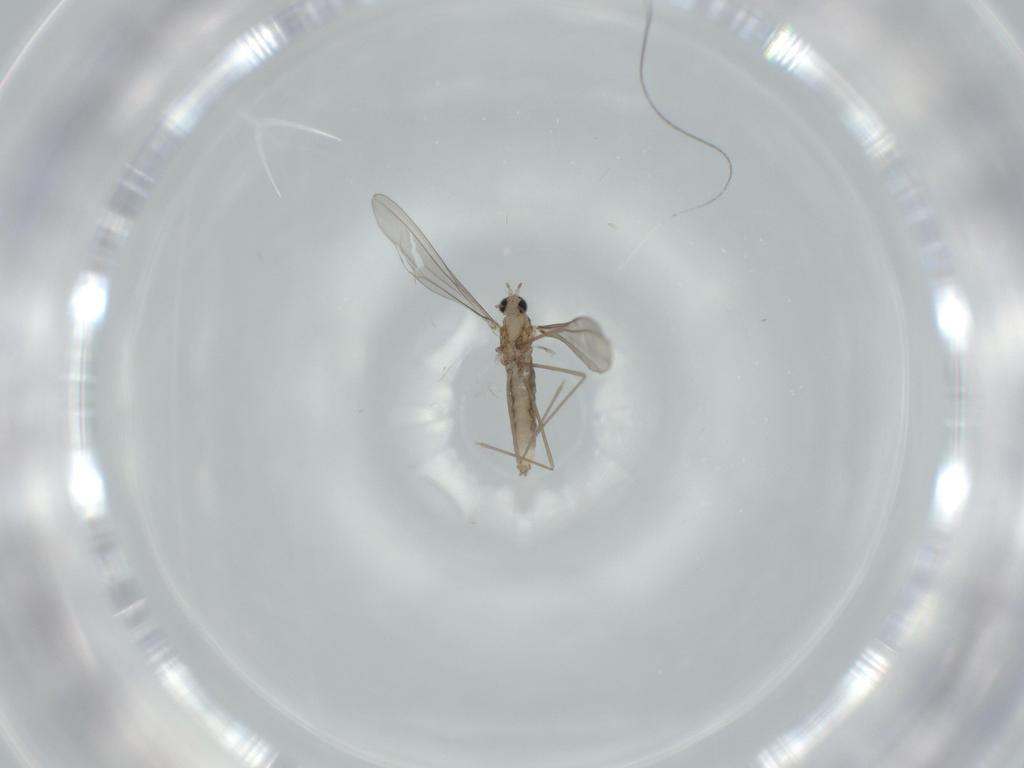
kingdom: Animalia
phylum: Arthropoda
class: Insecta
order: Diptera
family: Cecidomyiidae
